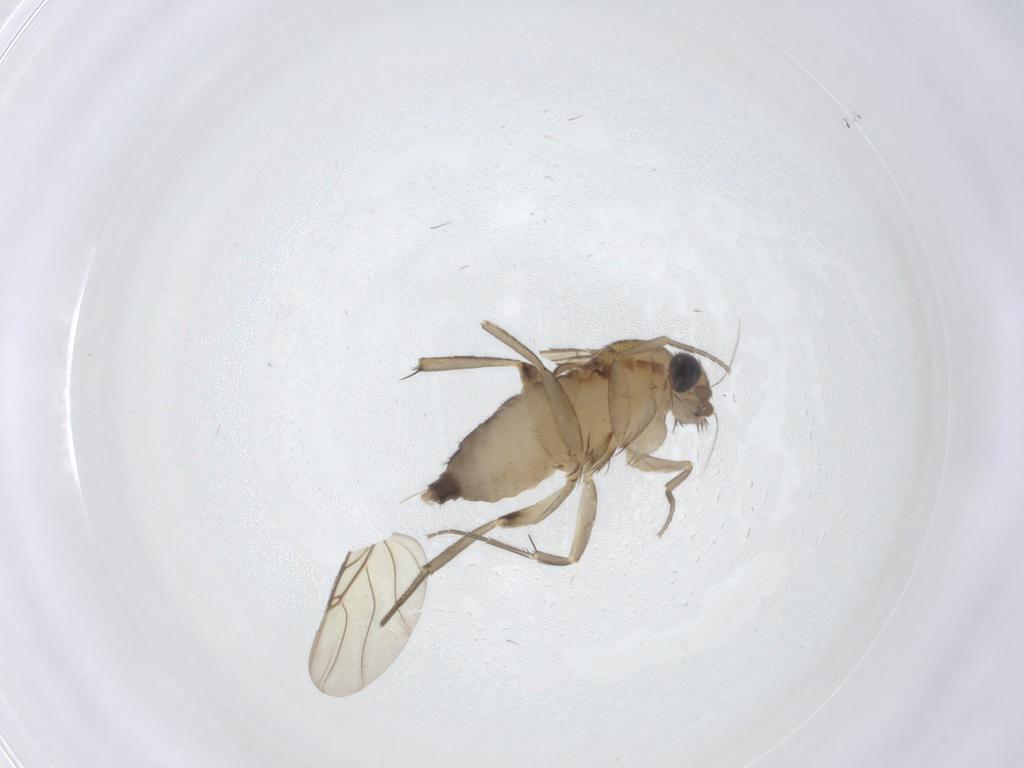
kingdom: Animalia
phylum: Arthropoda
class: Insecta
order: Diptera
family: Phoridae
